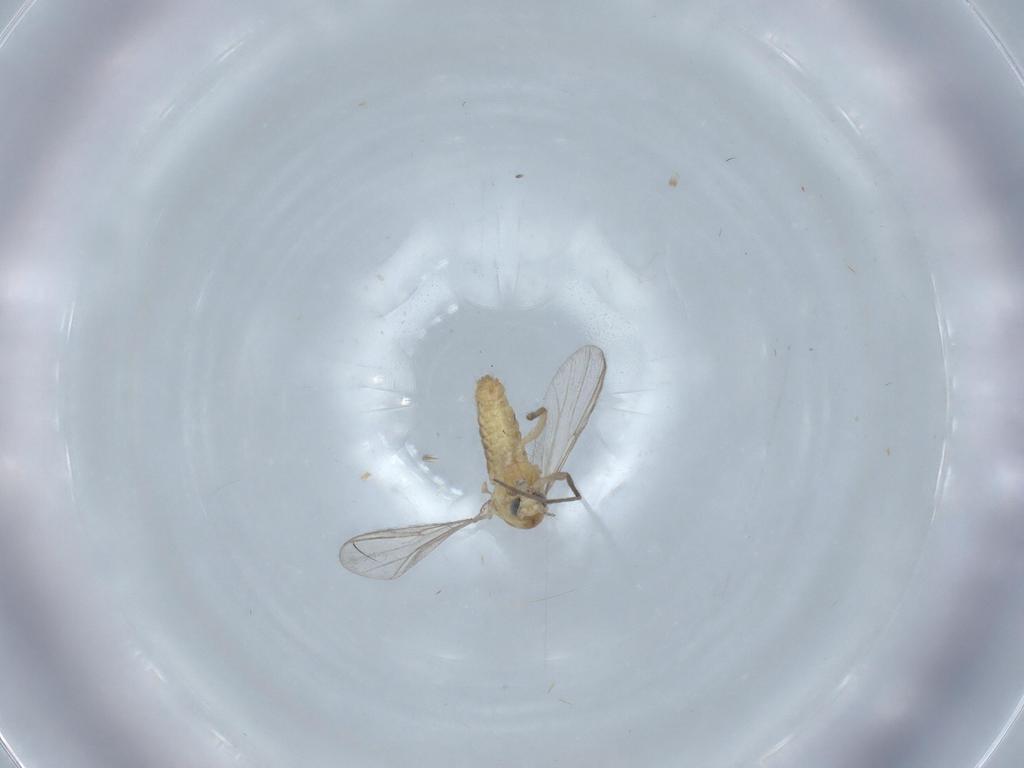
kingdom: Animalia
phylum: Arthropoda
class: Insecta
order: Diptera
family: Chironomidae
